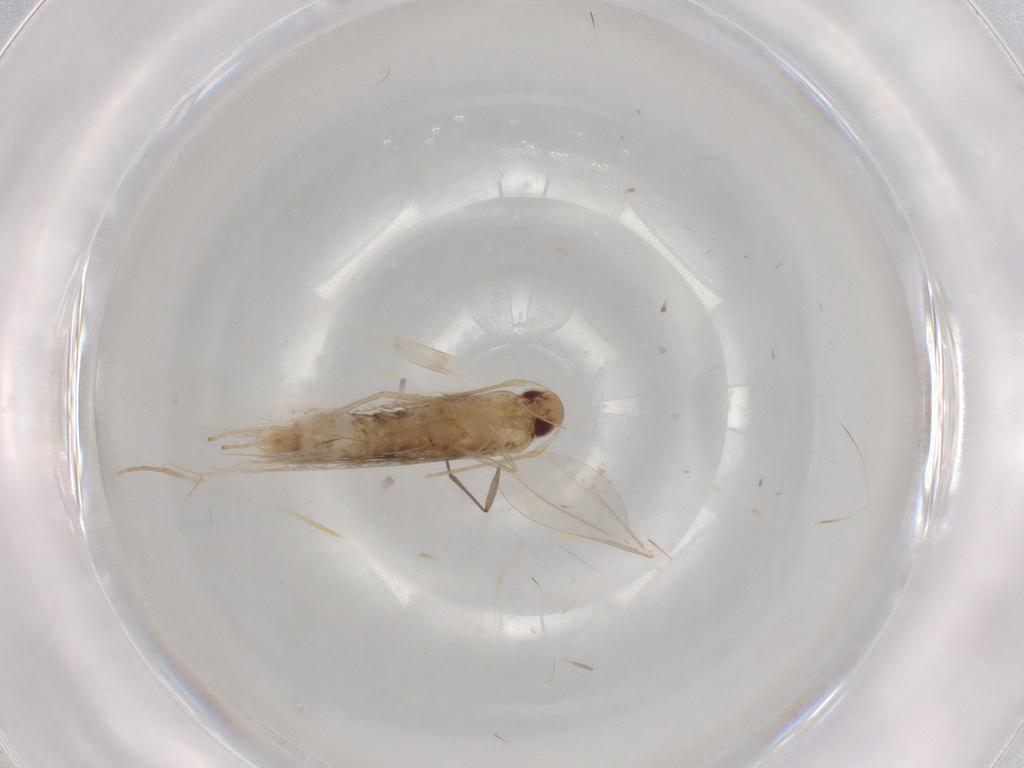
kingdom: Animalia
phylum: Arthropoda
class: Insecta
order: Lepidoptera
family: Cosmopterigidae
